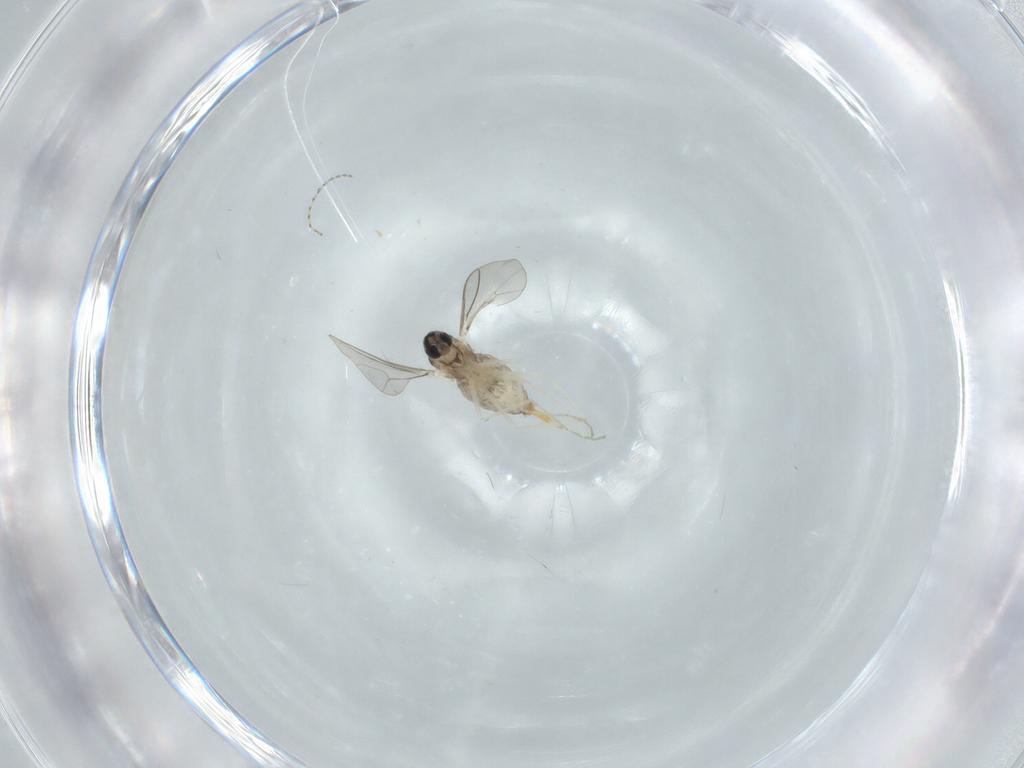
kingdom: Animalia
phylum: Arthropoda
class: Insecta
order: Diptera
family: Cecidomyiidae
